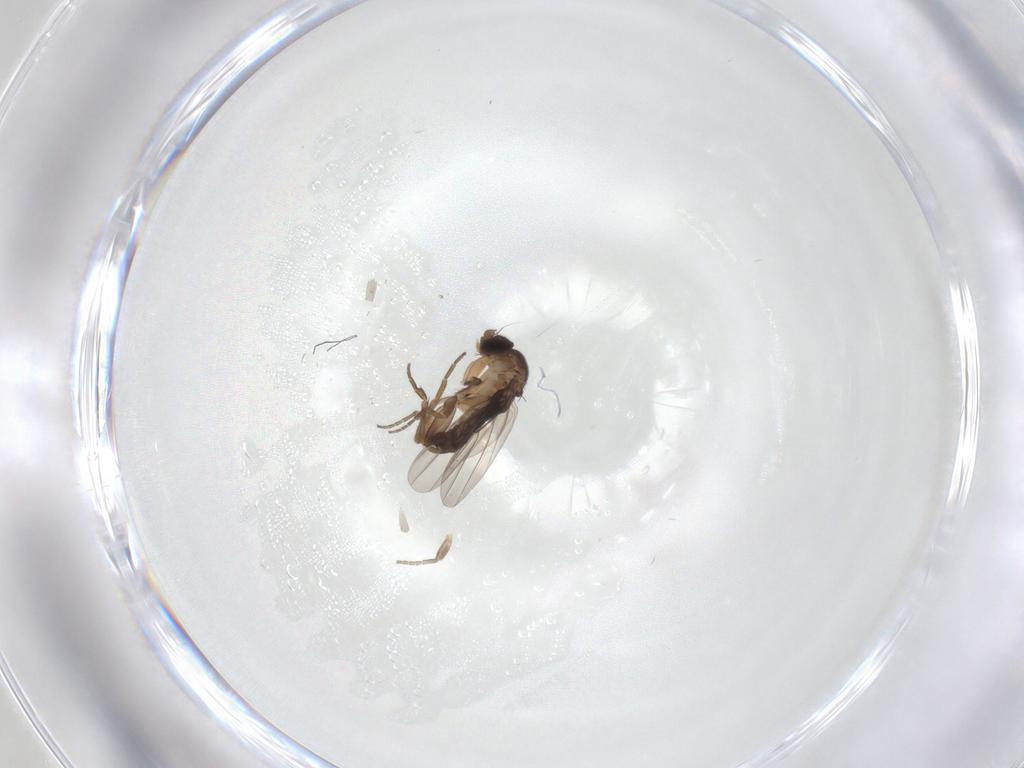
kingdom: Animalia
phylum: Arthropoda
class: Insecta
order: Diptera
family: Phoridae
